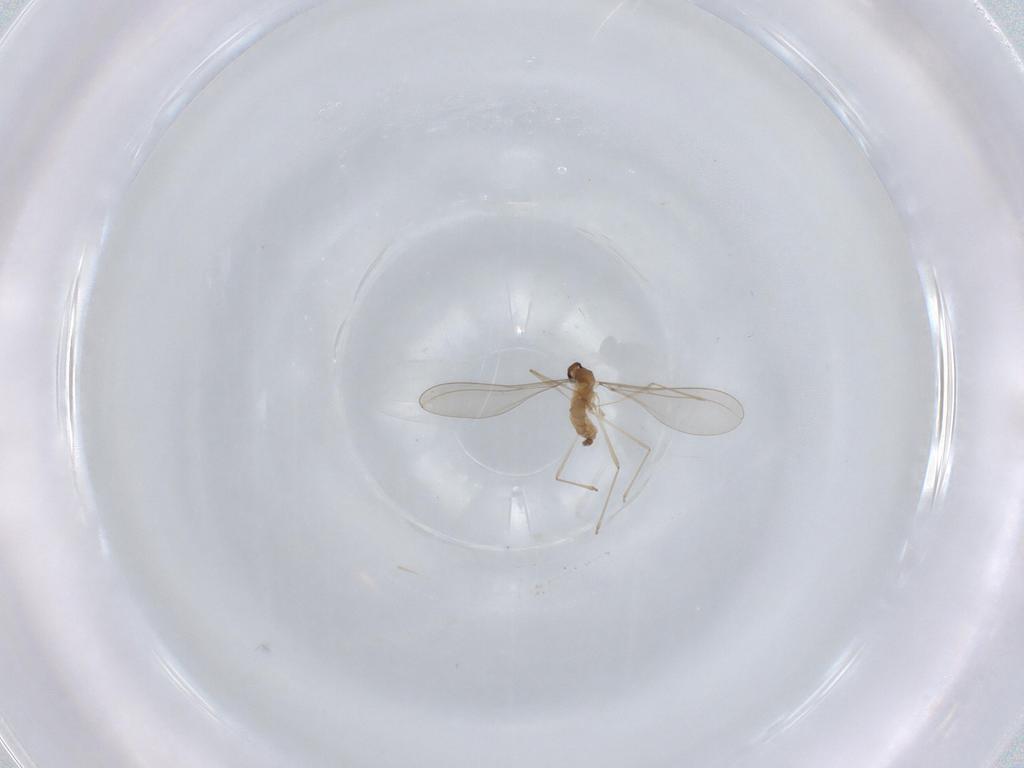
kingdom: Animalia
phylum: Arthropoda
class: Insecta
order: Diptera
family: Cecidomyiidae
